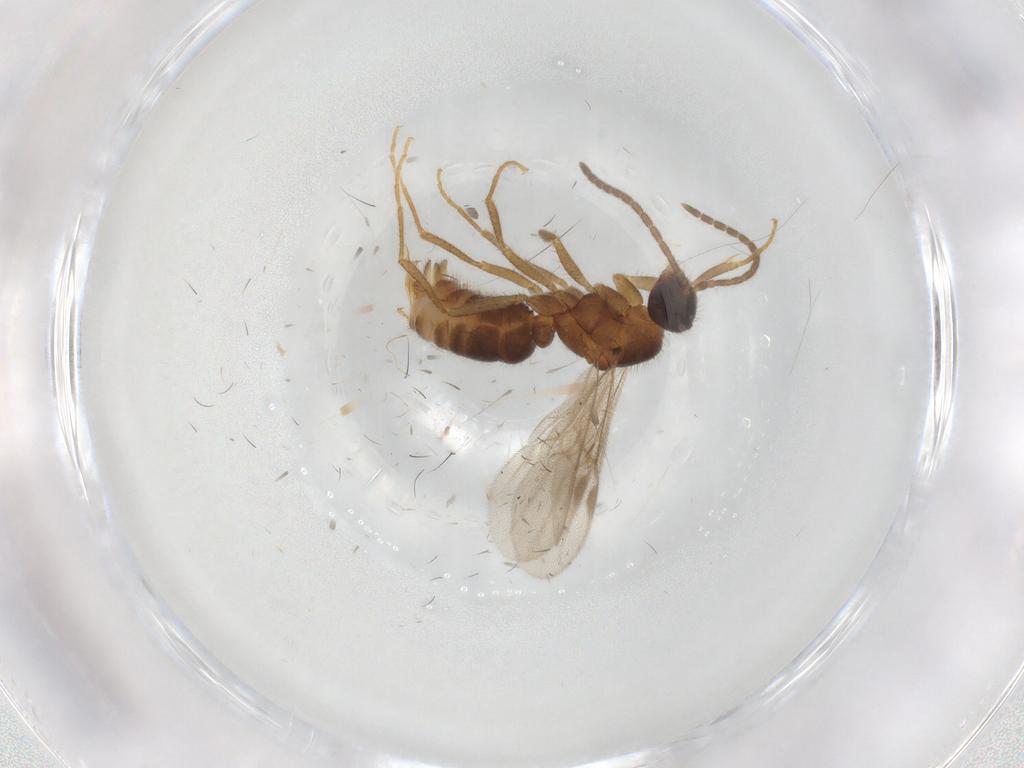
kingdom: Animalia
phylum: Arthropoda
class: Insecta
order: Hymenoptera
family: Formicidae
